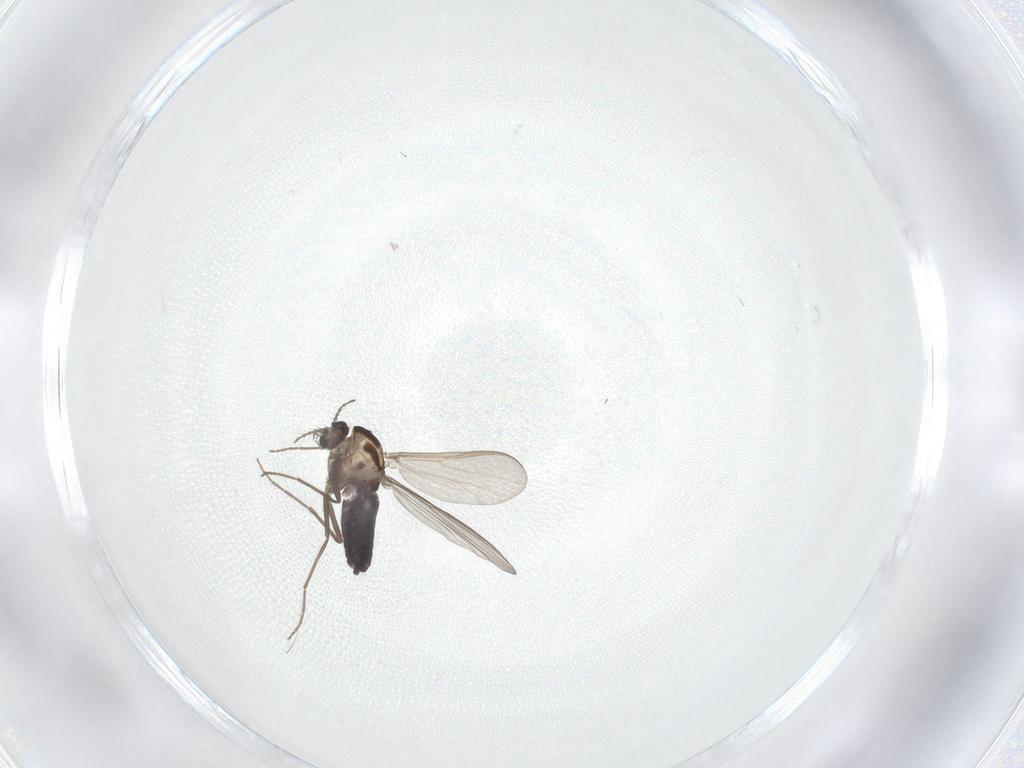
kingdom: Animalia
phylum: Arthropoda
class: Insecta
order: Diptera
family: Chironomidae
